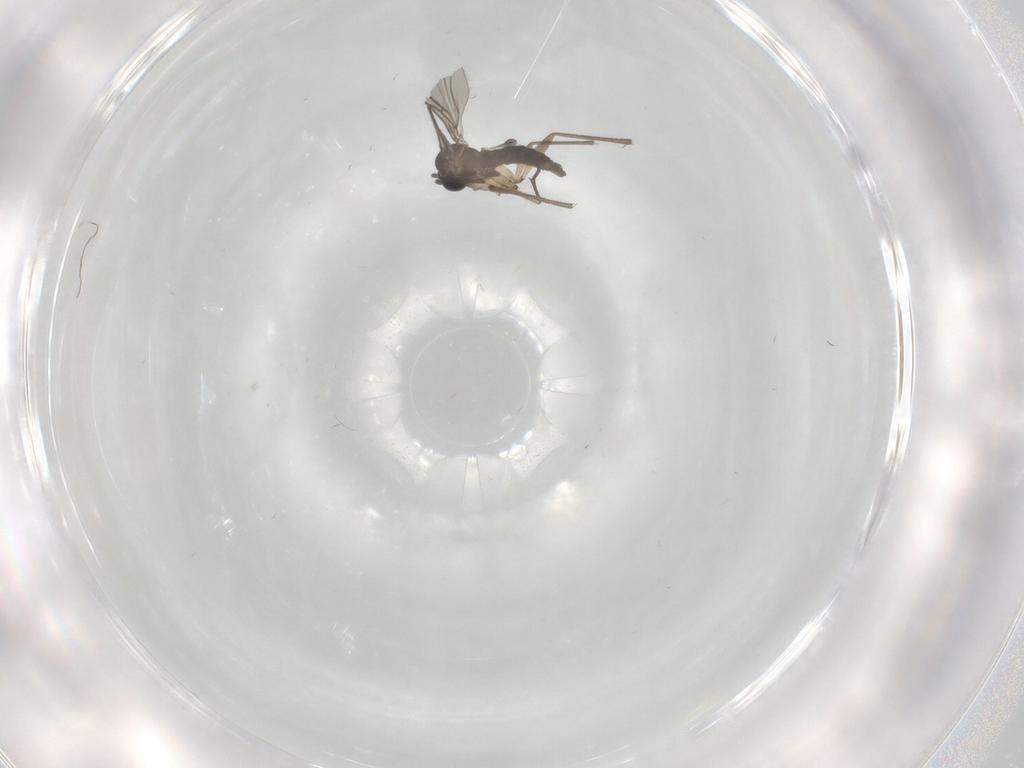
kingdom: Animalia
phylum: Arthropoda
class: Insecta
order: Diptera
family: Sciaridae
